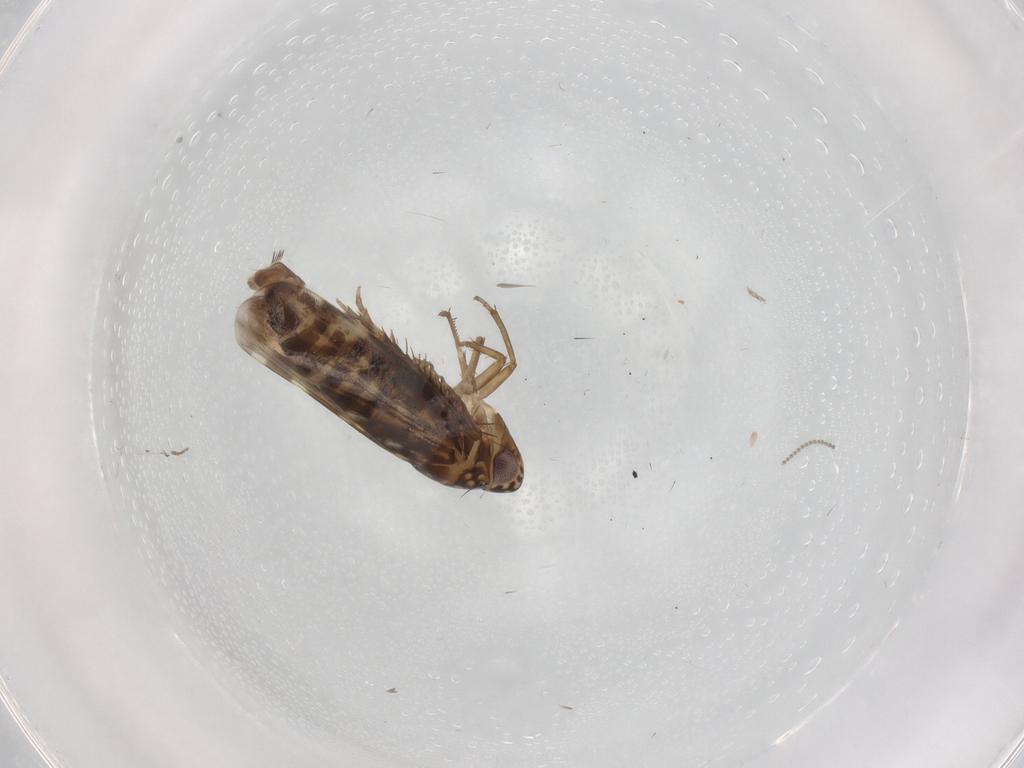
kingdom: Animalia
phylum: Arthropoda
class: Insecta
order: Hemiptera
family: Cicadellidae
